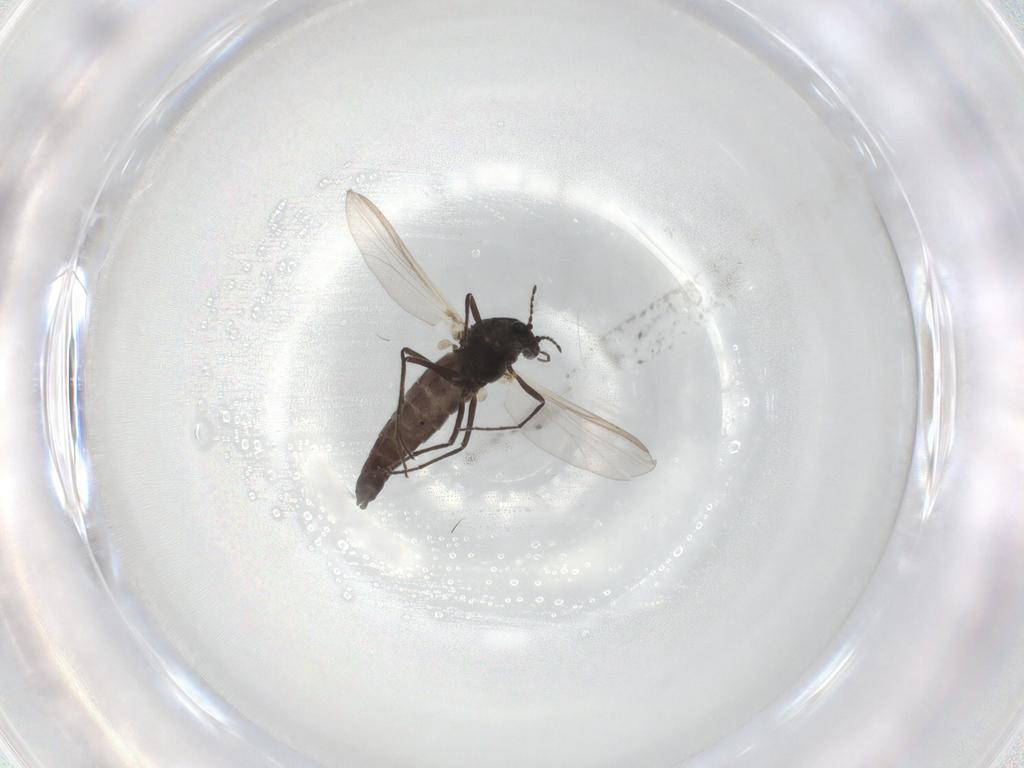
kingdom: Animalia
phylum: Arthropoda
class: Insecta
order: Diptera
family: Chironomidae
